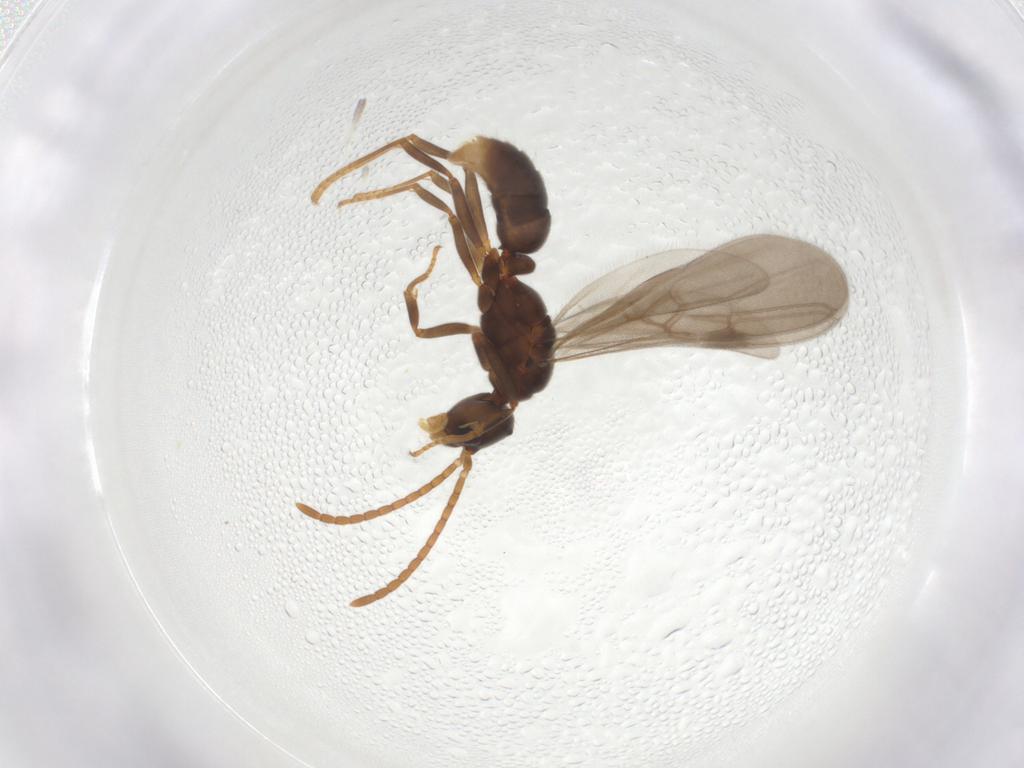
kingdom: Animalia
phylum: Arthropoda
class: Insecta
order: Hymenoptera
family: Formicidae
